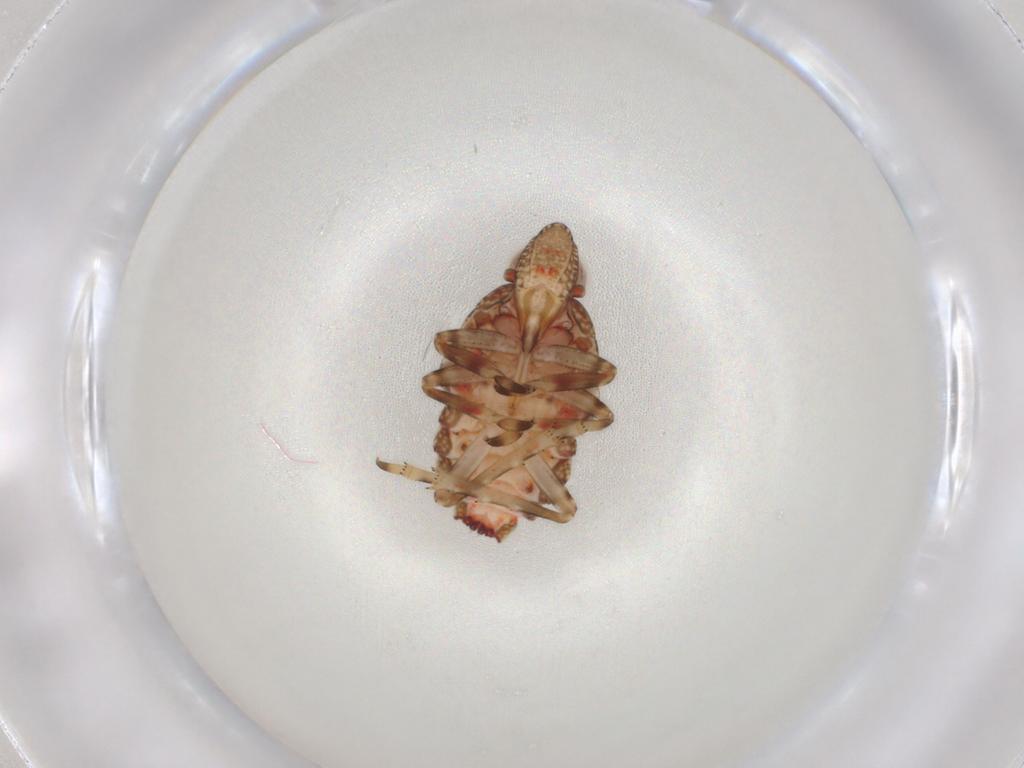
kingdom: Animalia
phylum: Arthropoda
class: Insecta
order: Hemiptera
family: Tropiduchidae
